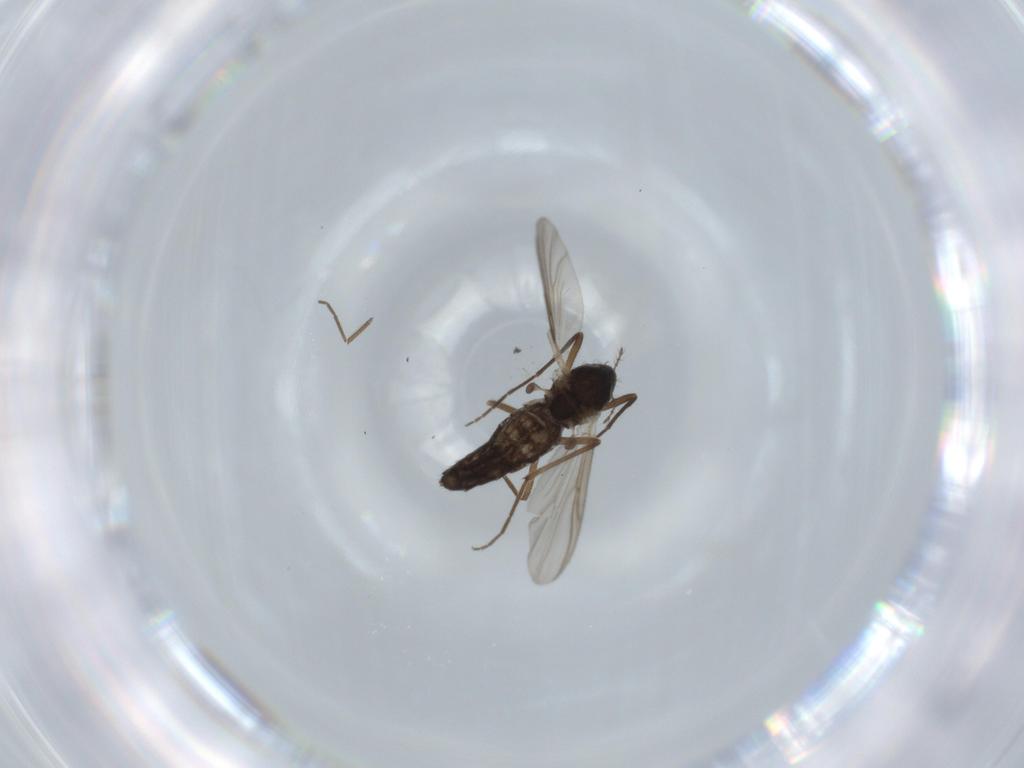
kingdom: Animalia
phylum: Arthropoda
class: Insecta
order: Diptera
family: Chironomidae
